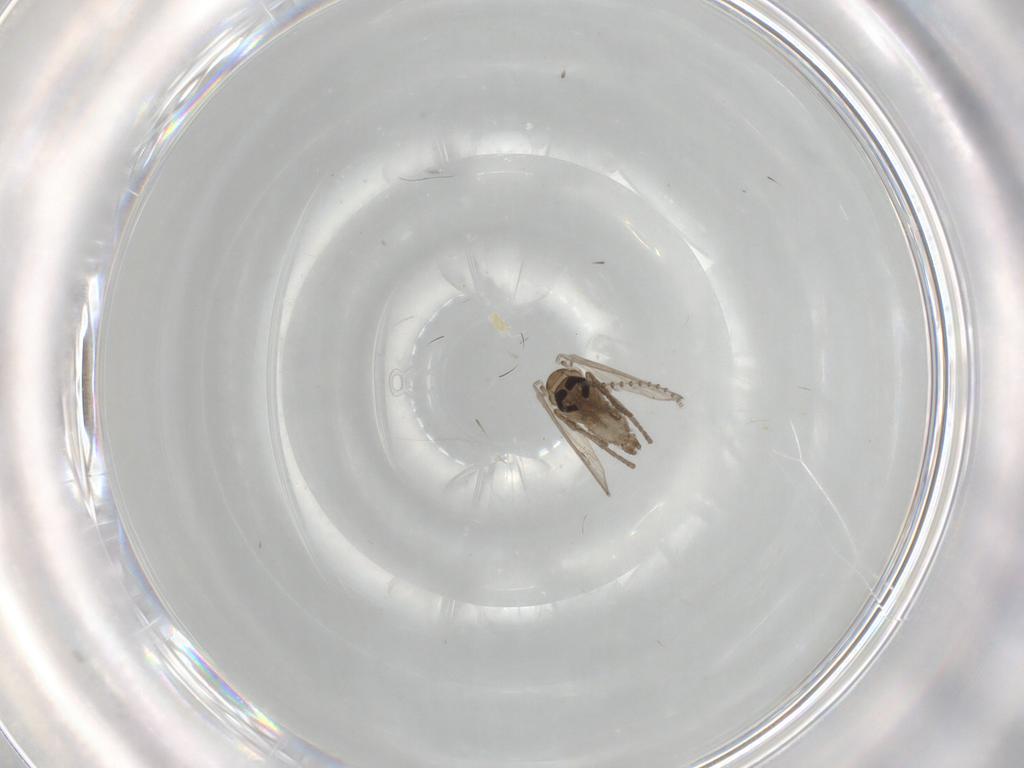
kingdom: Animalia
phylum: Arthropoda
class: Insecta
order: Diptera
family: Psychodidae
